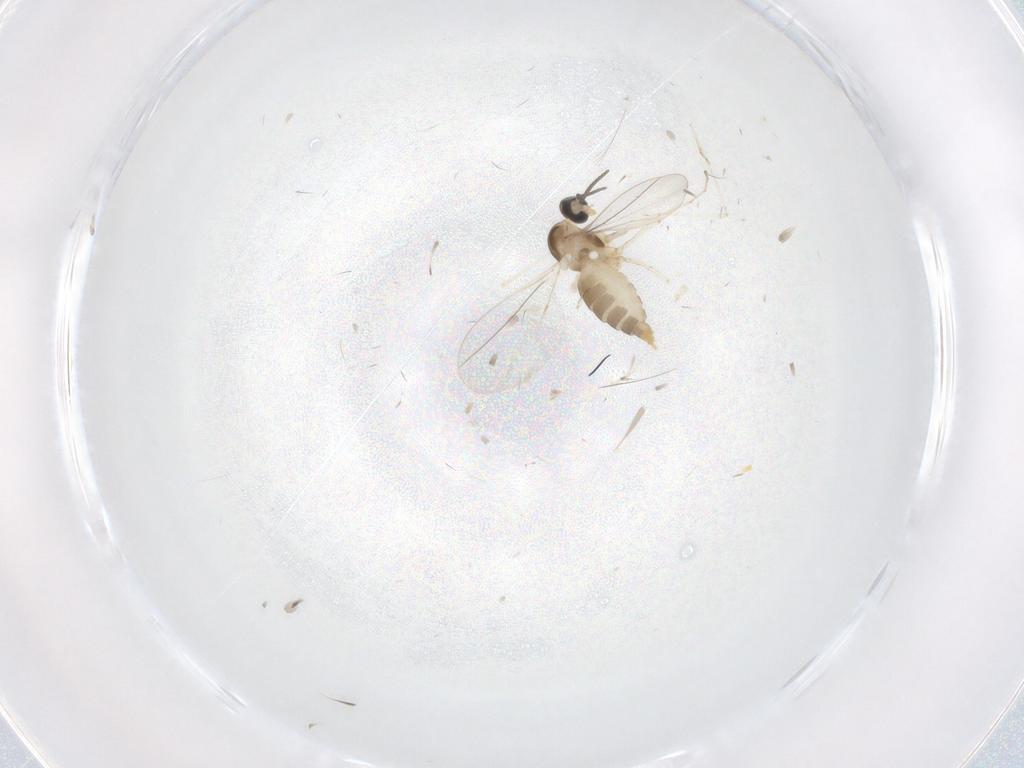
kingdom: Animalia
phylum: Arthropoda
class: Insecta
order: Diptera
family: Cecidomyiidae
